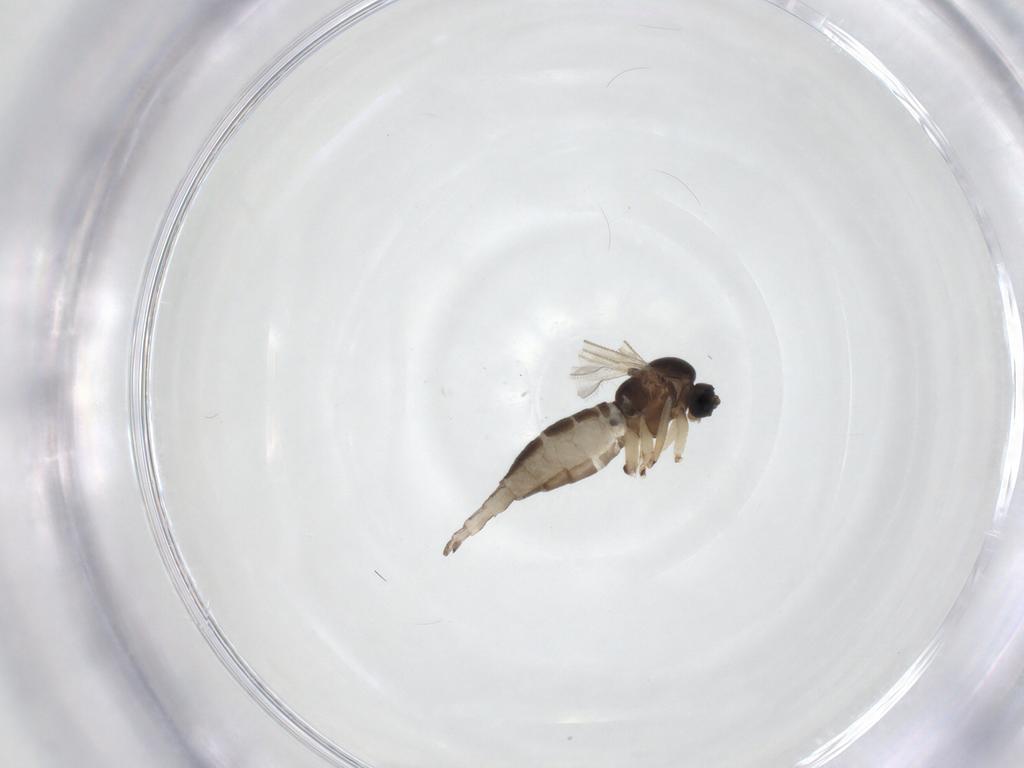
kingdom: Animalia
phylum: Arthropoda
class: Insecta
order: Diptera
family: Sciaridae
